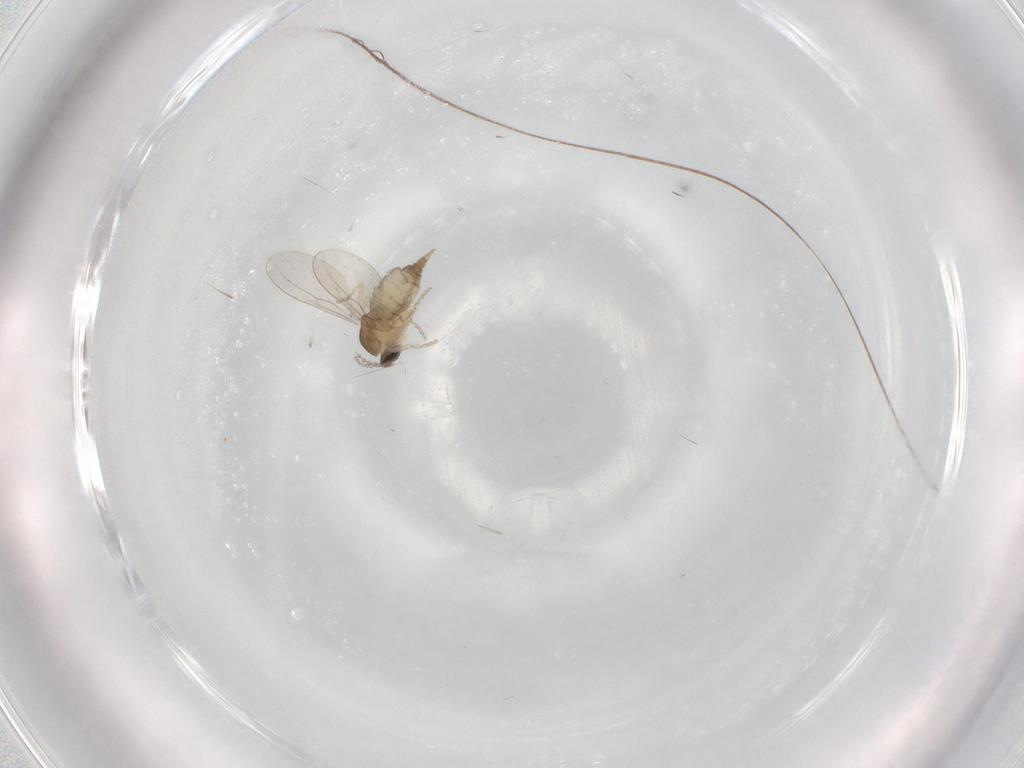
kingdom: Animalia
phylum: Arthropoda
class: Insecta
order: Diptera
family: Cecidomyiidae
